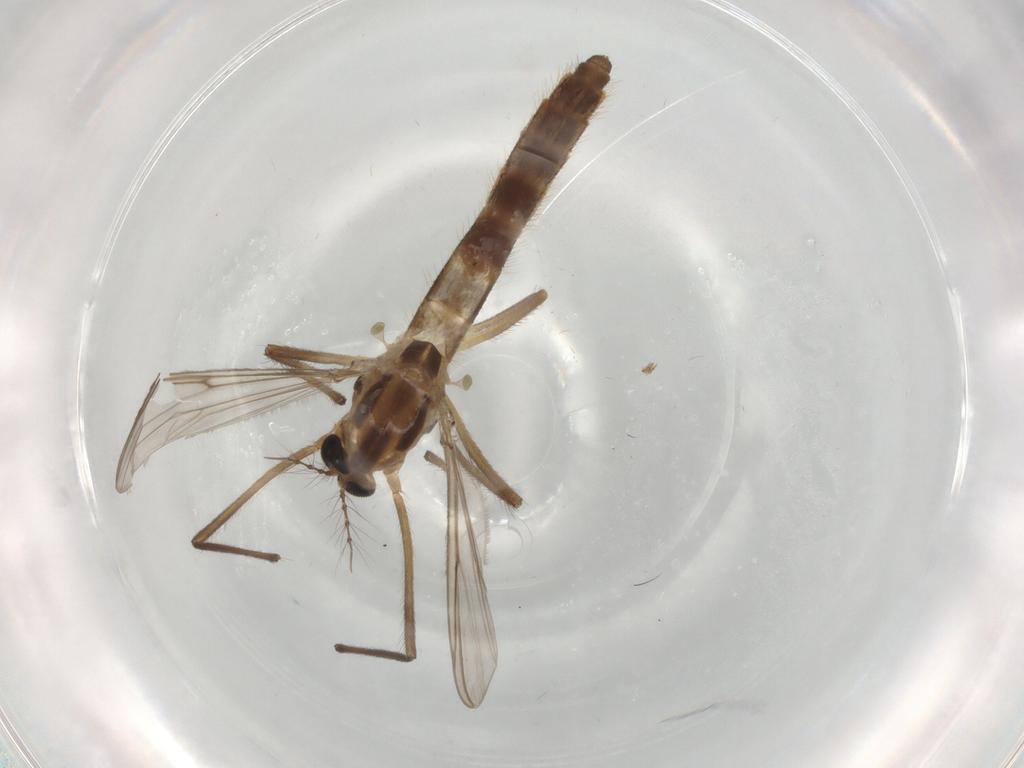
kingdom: Animalia
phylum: Arthropoda
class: Insecta
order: Diptera
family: Chironomidae
